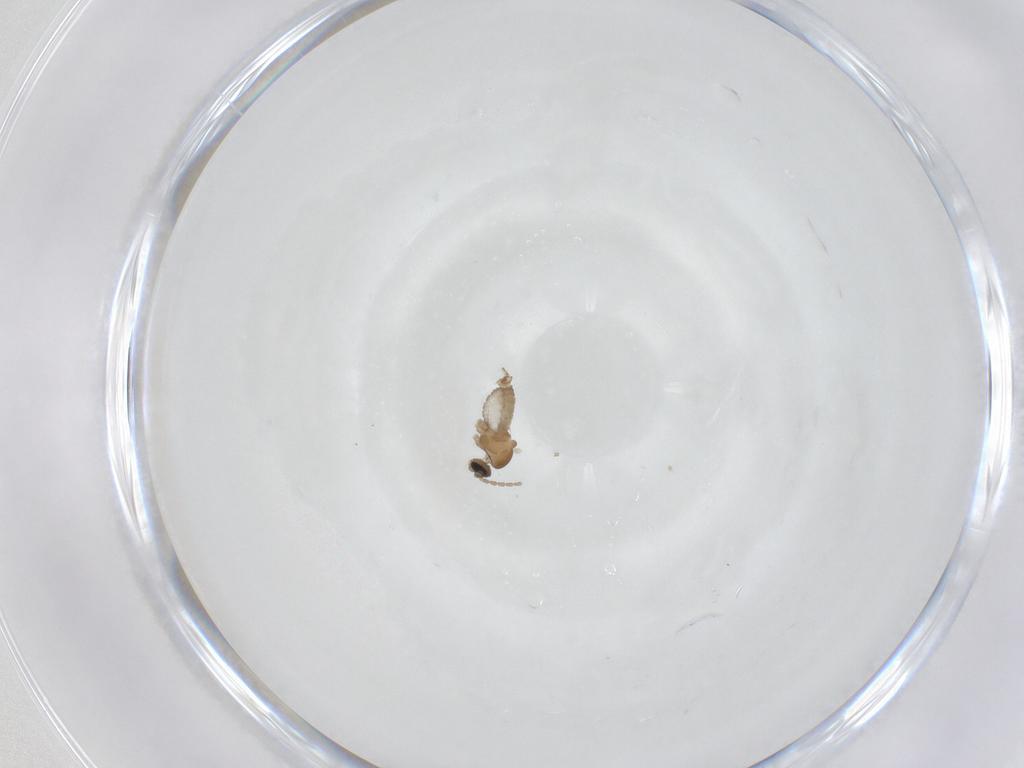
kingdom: Animalia
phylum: Arthropoda
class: Insecta
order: Diptera
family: Cecidomyiidae
